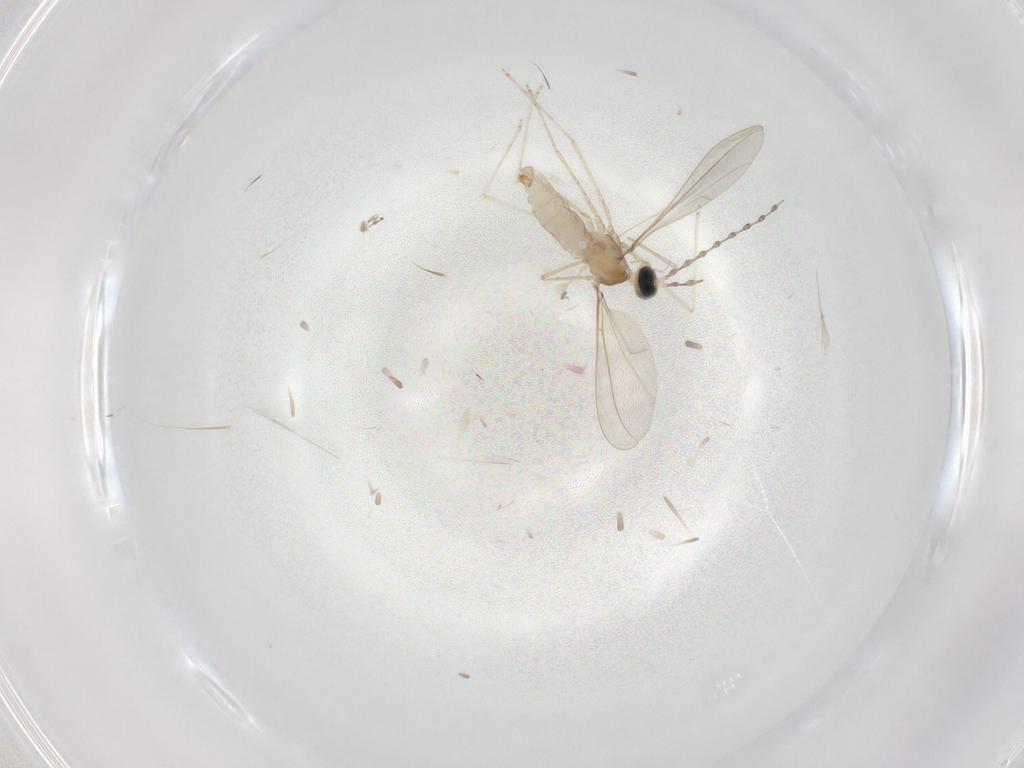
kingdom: Animalia
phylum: Arthropoda
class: Insecta
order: Diptera
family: Cecidomyiidae
